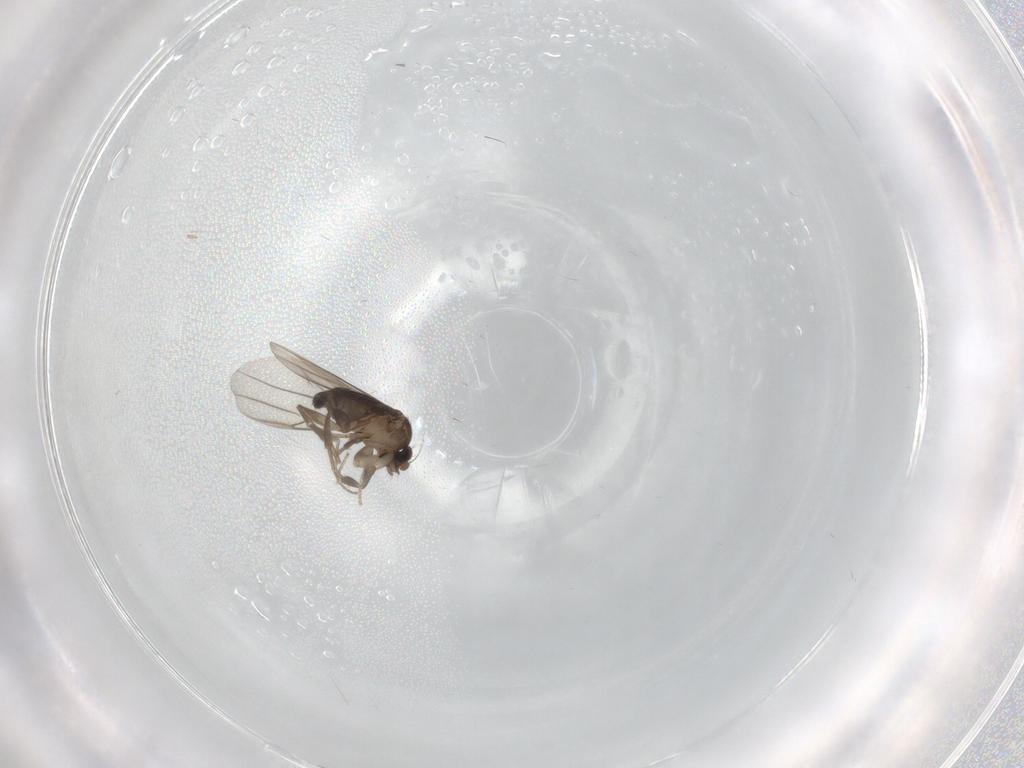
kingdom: Animalia
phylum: Arthropoda
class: Insecta
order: Diptera
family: Phoridae
